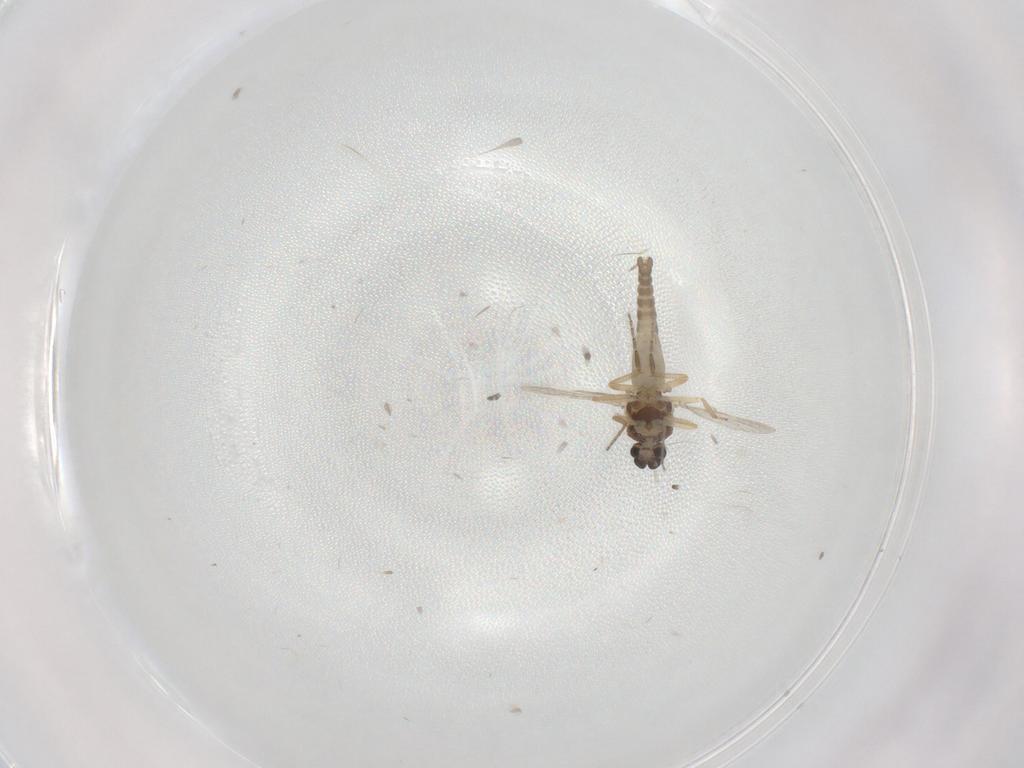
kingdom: Animalia
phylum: Arthropoda
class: Insecta
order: Diptera
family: Ceratopogonidae
